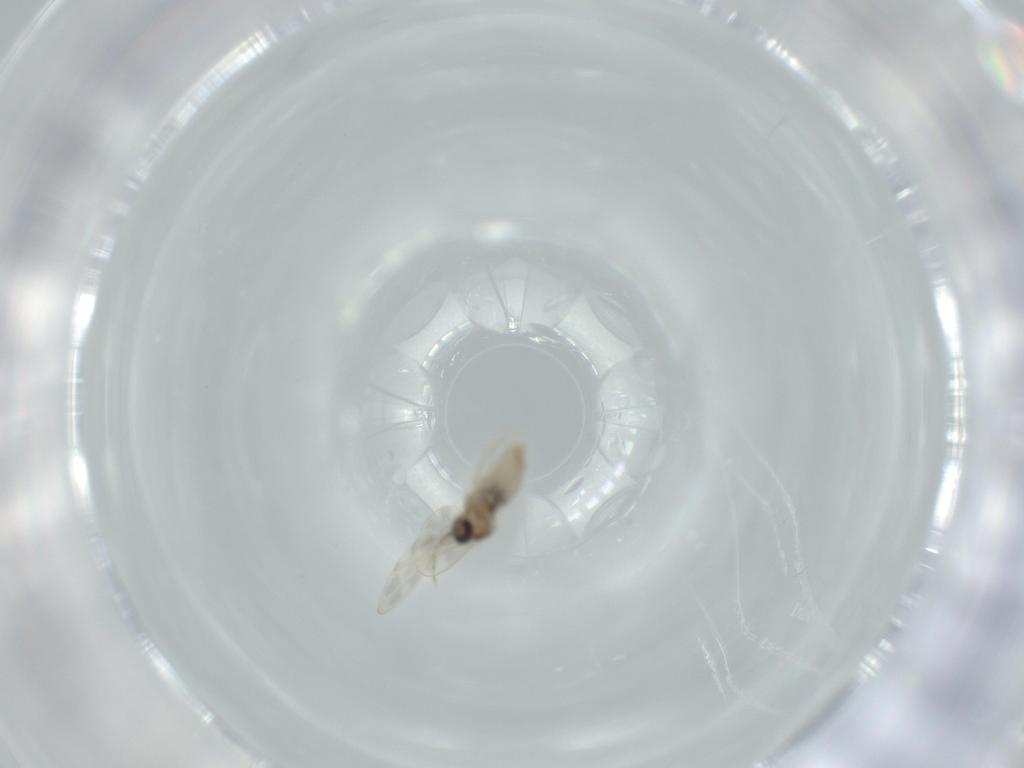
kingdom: Animalia
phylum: Arthropoda
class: Insecta
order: Diptera
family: Cecidomyiidae
